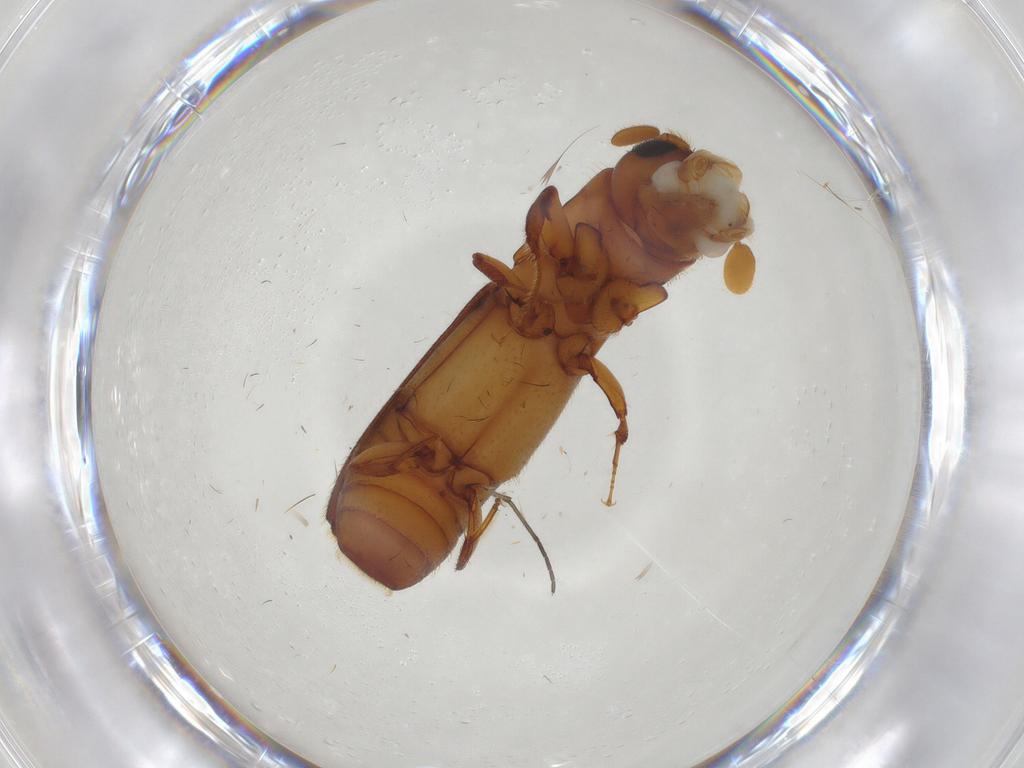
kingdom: Animalia
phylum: Arthropoda
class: Insecta
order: Coleoptera
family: Curculionidae
